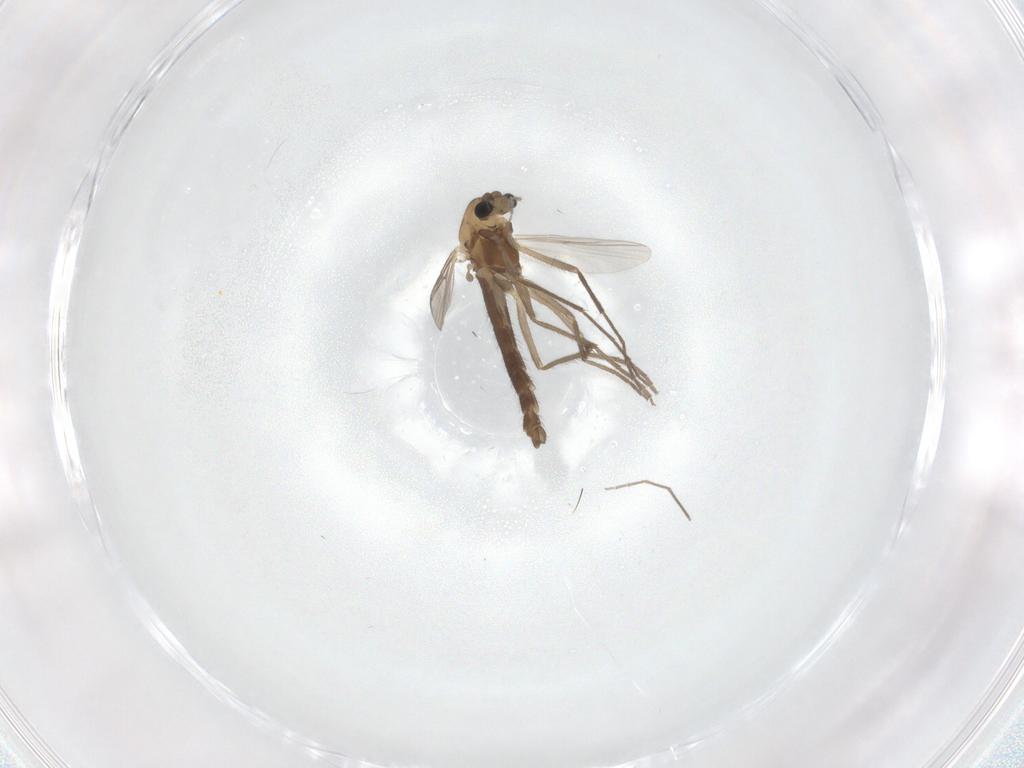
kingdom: Animalia
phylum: Arthropoda
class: Insecta
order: Diptera
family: Chironomidae
